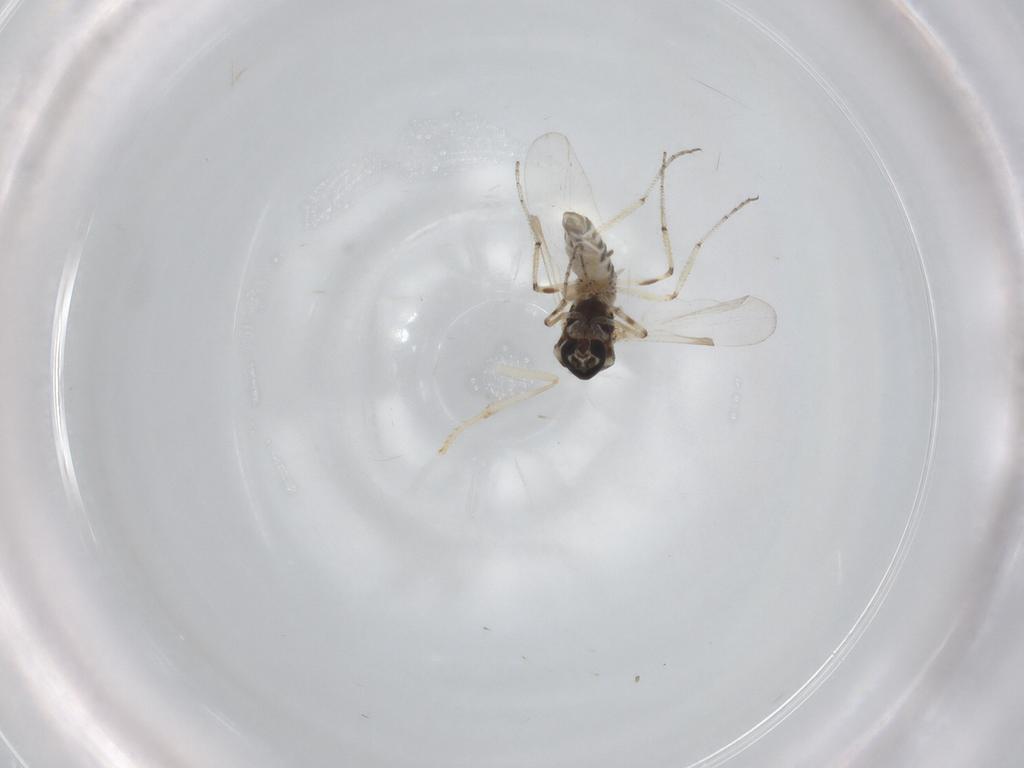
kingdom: Animalia
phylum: Arthropoda
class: Insecta
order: Diptera
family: Ceratopogonidae
